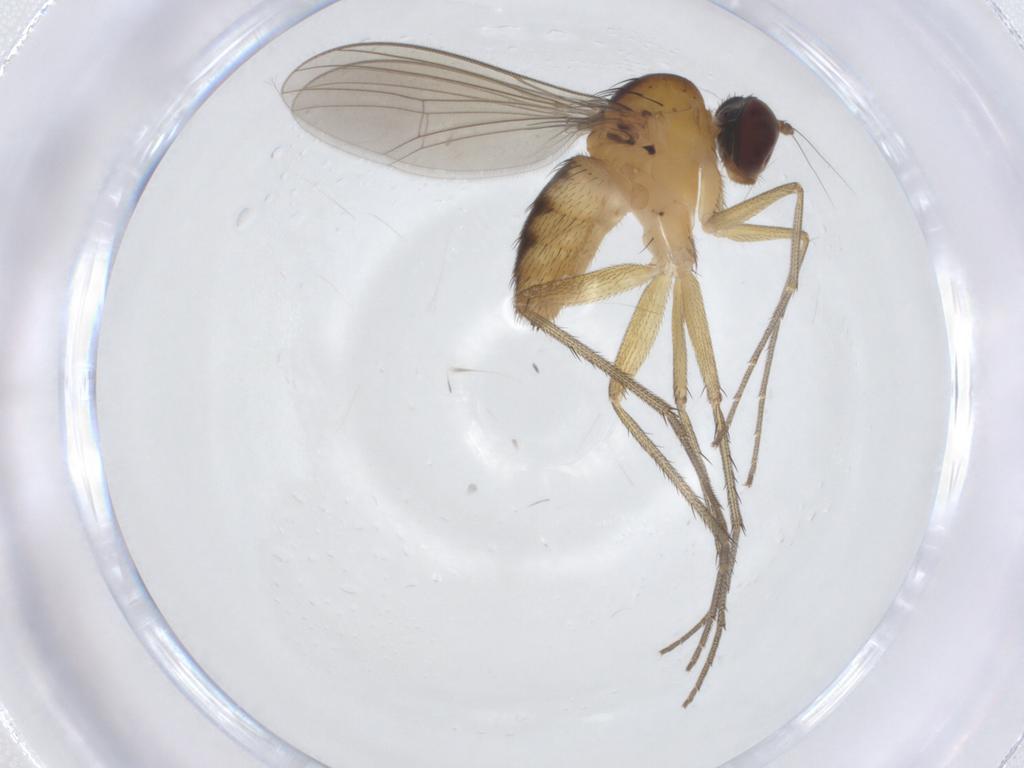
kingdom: Animalia
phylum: Arthropoda
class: Insecta
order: Diptera
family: Dolichopodidae
